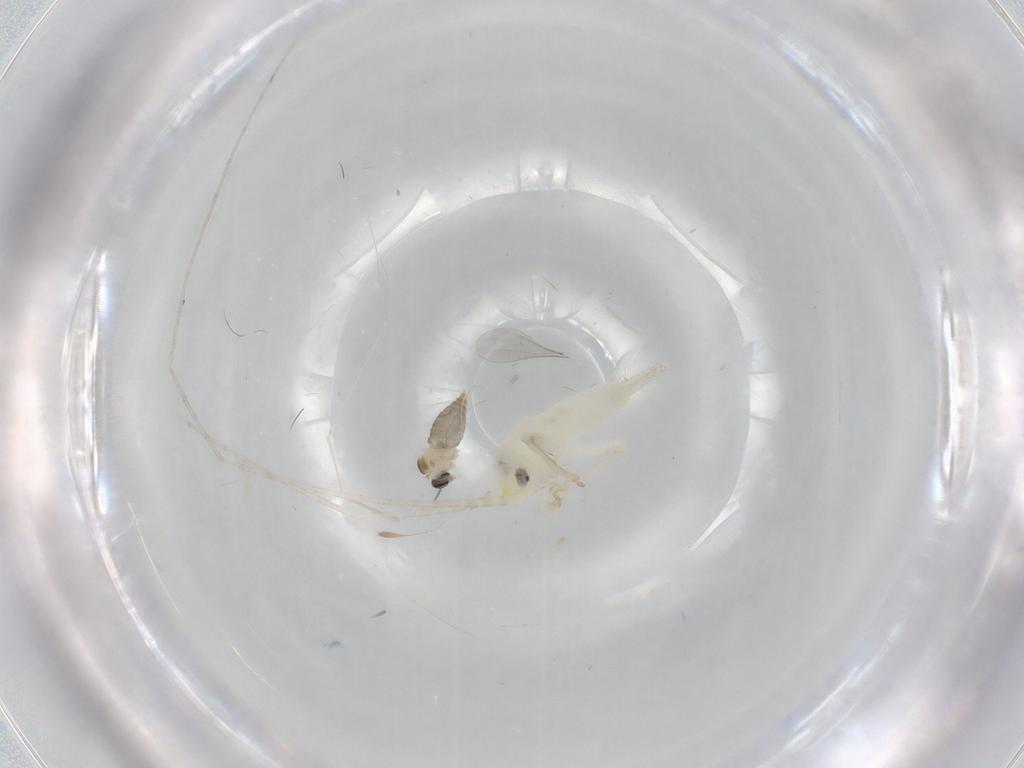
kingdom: Animalia
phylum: Arthropoda
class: Insecta
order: Orthoptera
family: Trigonidiidae
